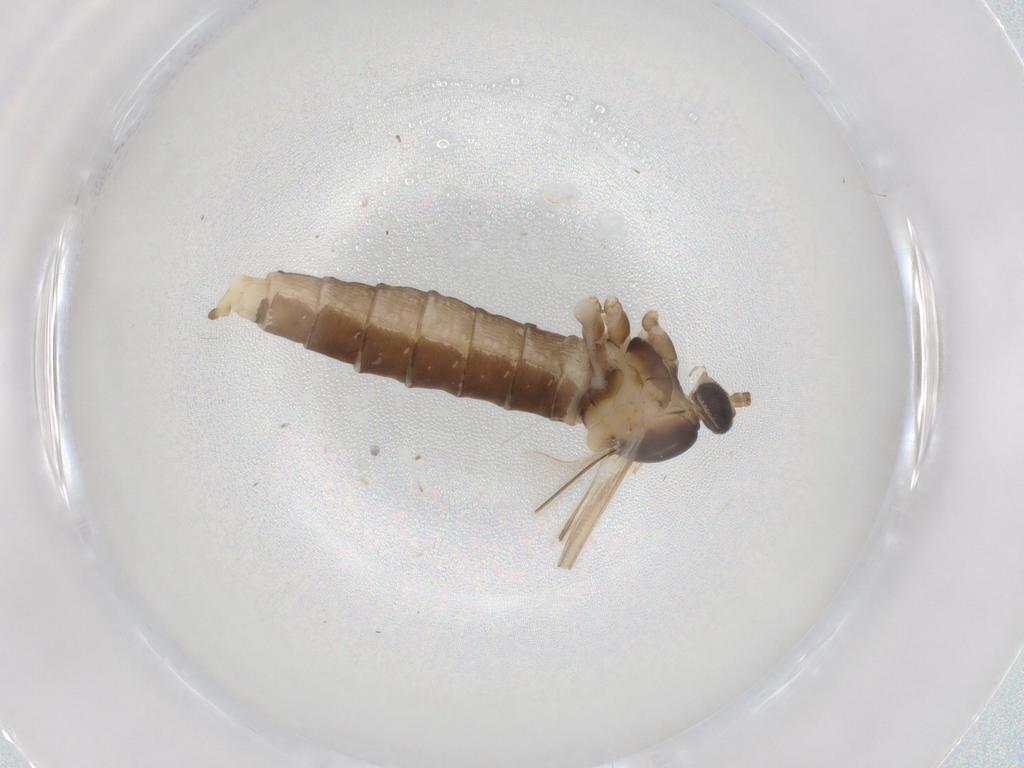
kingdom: Animalia
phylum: Arthropoda
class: Insecta
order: Diptera
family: Cecidomyiidae
